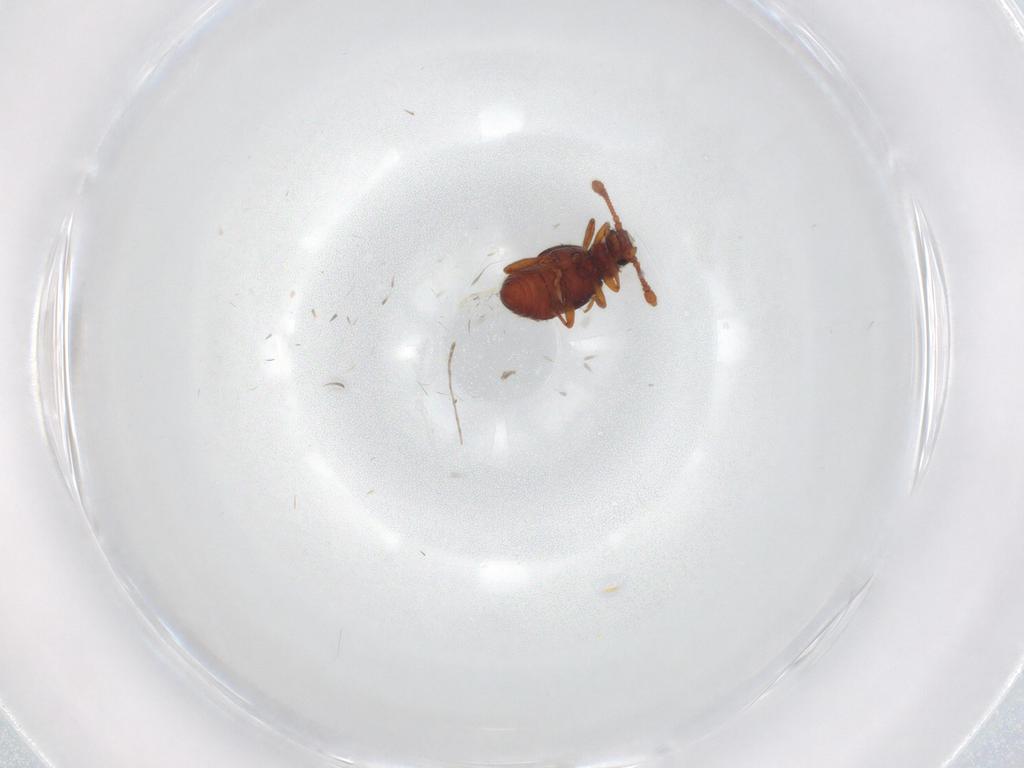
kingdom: Animalia
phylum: Arthropoda
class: Insecta
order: Coleoptera
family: Staphylinidae
